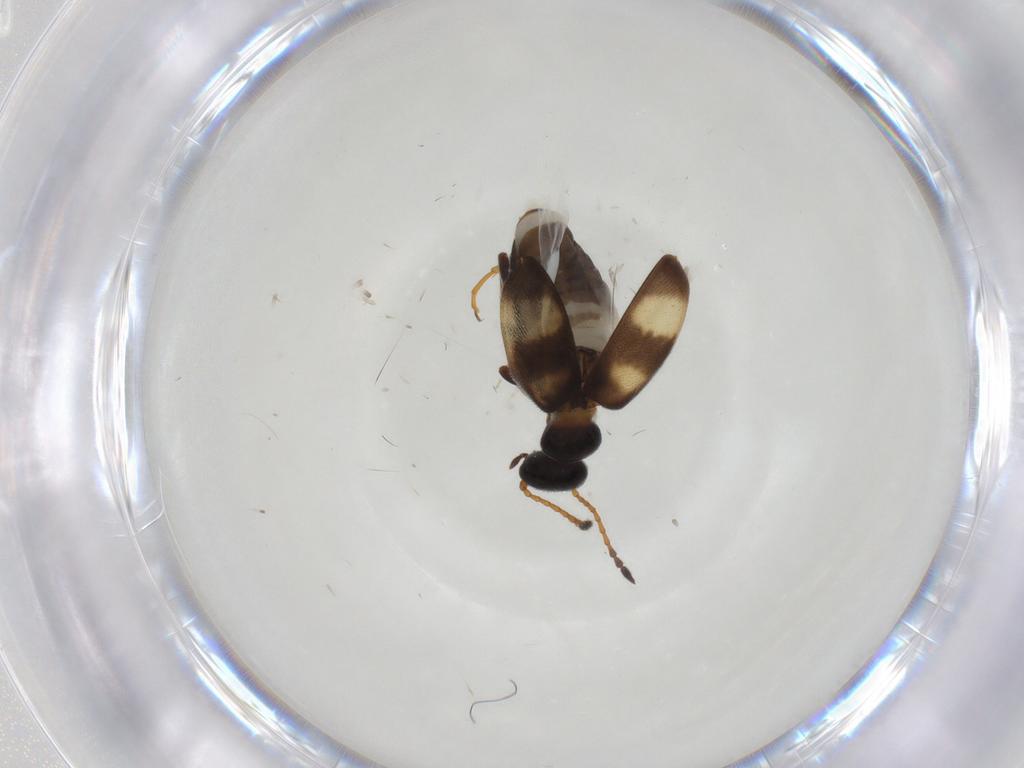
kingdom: Animalia
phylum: Arthropoda
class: Insecta
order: Coleoptera
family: Anthicidae
